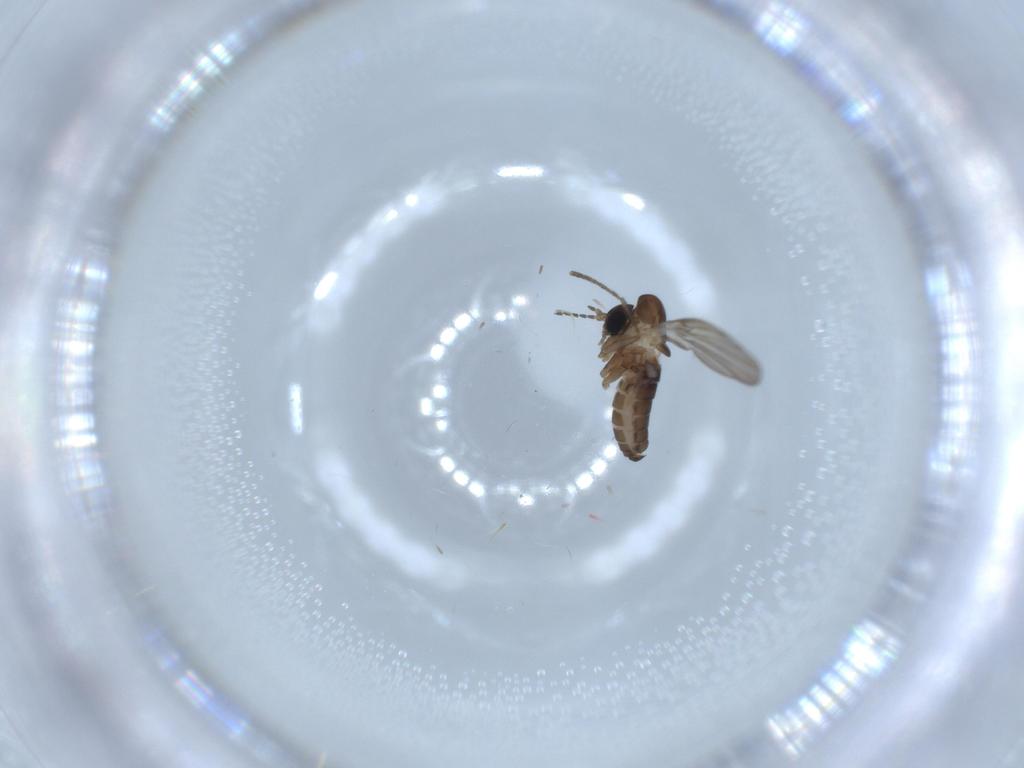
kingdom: Animalia
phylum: Arthropoda
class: Insecta
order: Diptera
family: Psychodidae
